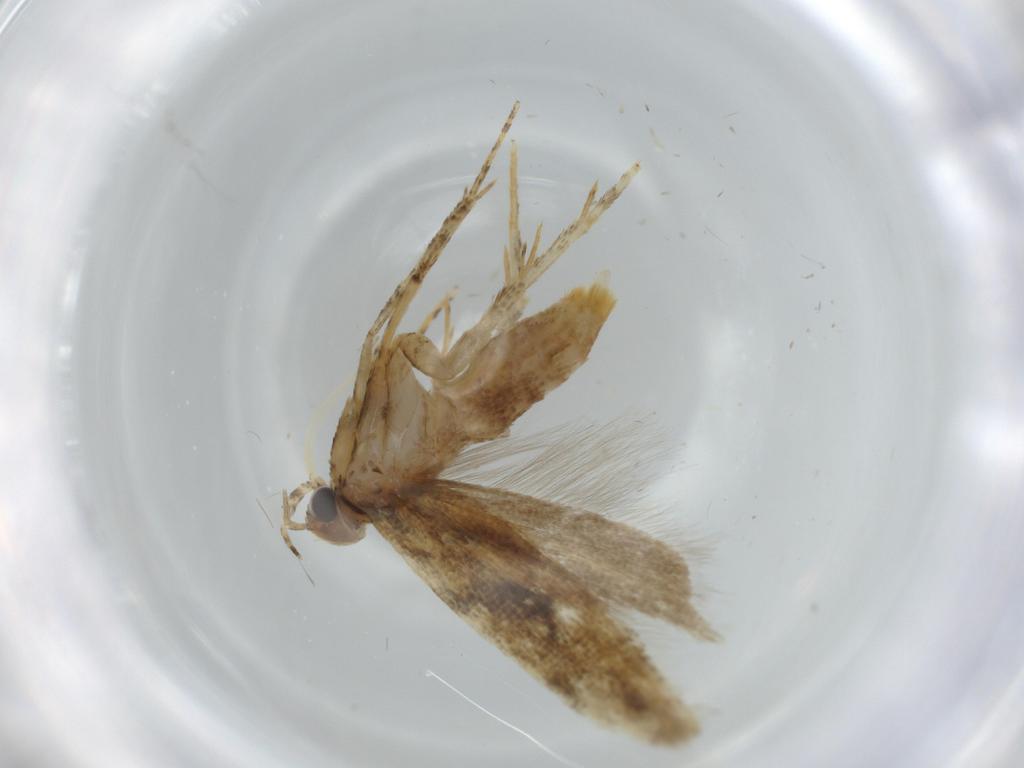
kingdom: Animalia
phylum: Arthropoda
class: Insecta
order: Lepidoptera
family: Gelechiidae
